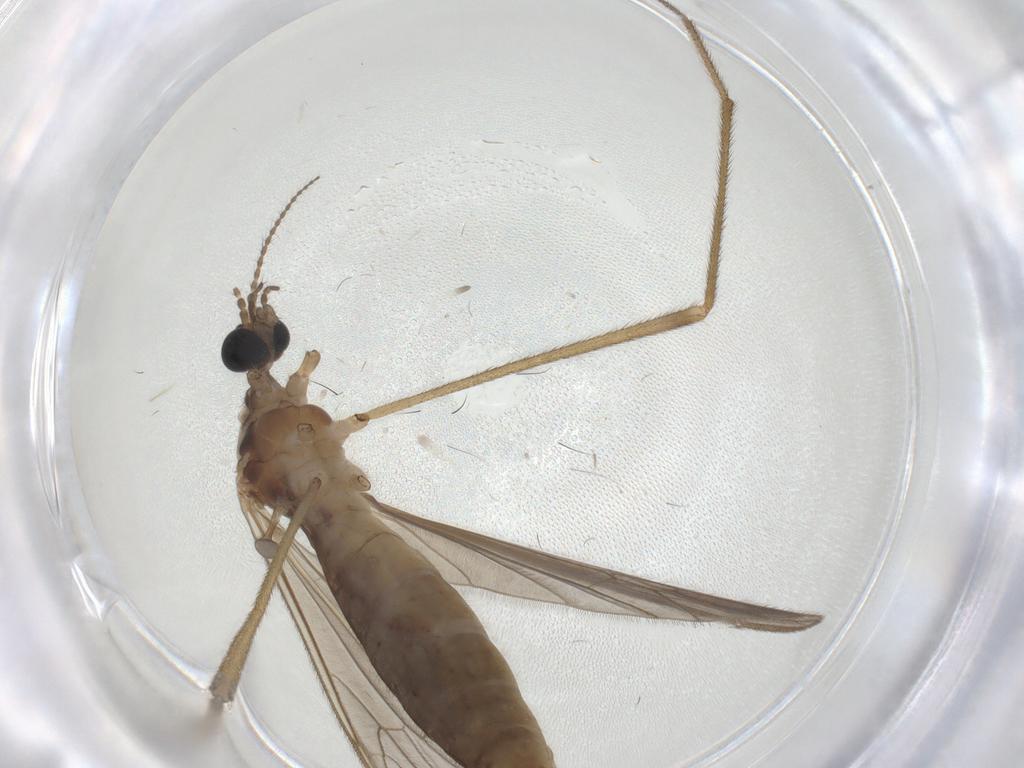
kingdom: Animalia
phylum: Arthropoda
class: Insecta
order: Diptera
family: Limoniidae
